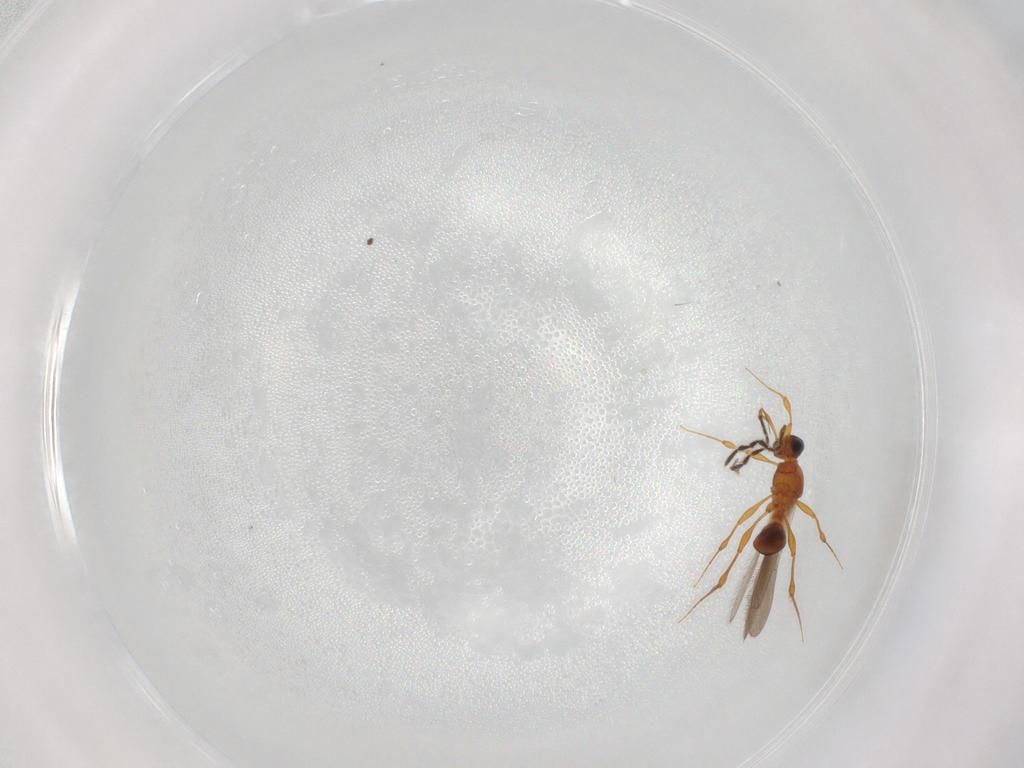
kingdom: Animalia
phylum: Arthropoda
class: Insecta
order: Hymenoptera
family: Platygastridae
